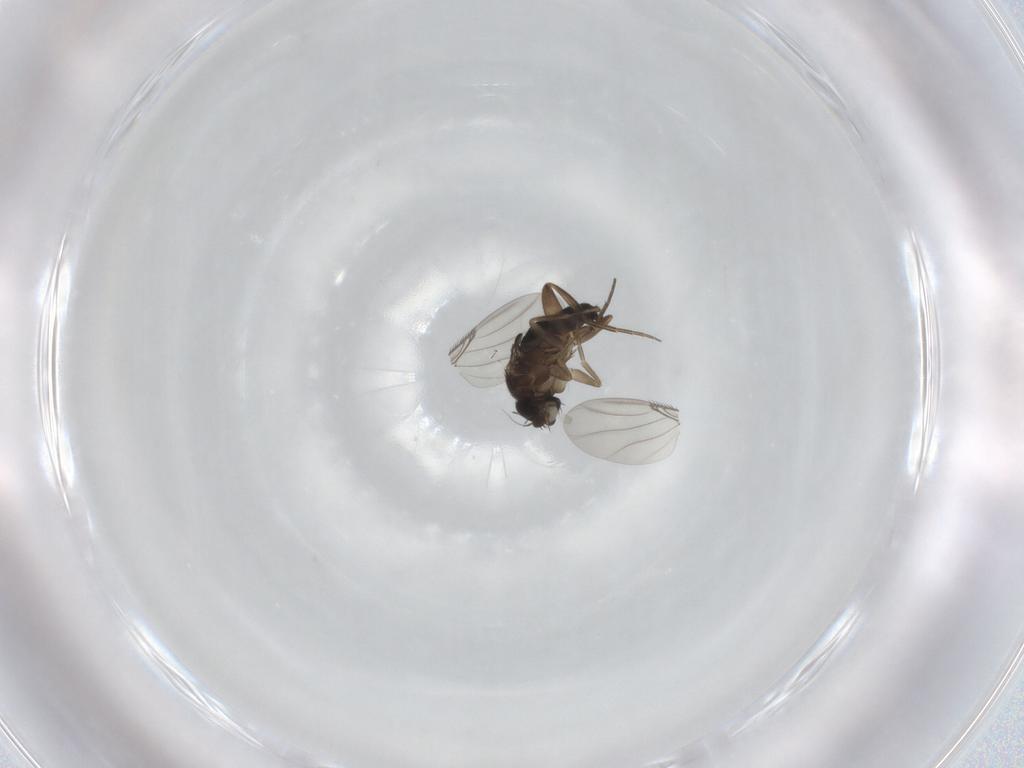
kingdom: Animalia
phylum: Arthropoda
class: Insecta
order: Diptera
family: Phoridae
